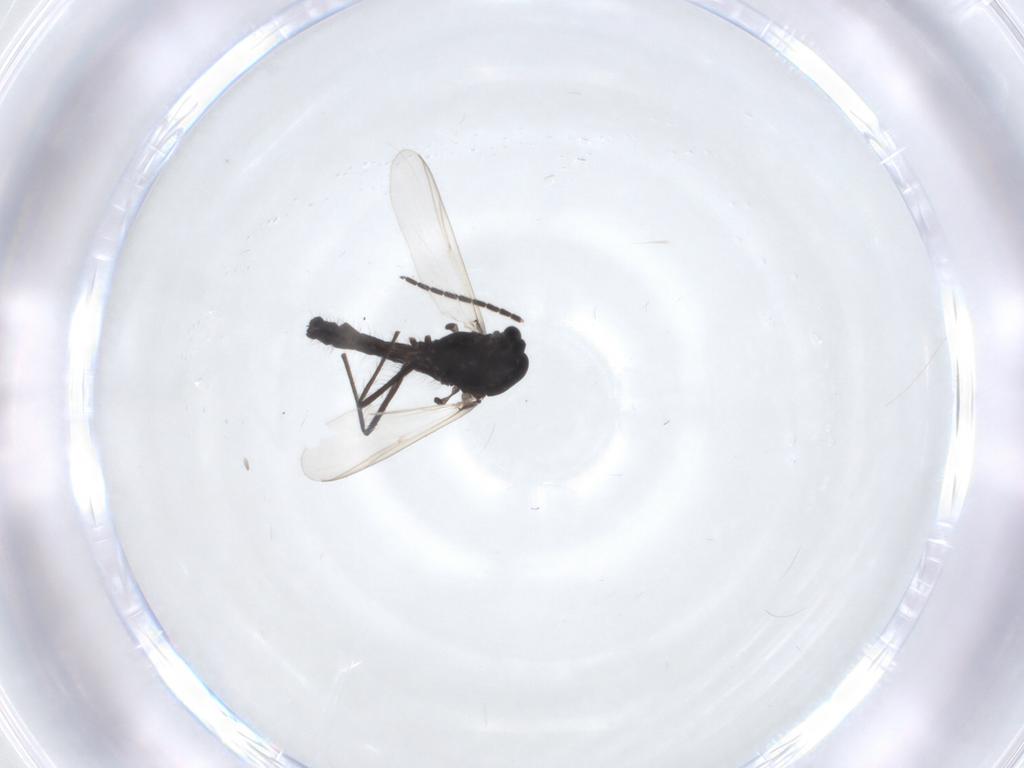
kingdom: Animalia
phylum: Arthropoda
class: Insecta
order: Diptera
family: Sciaridae
